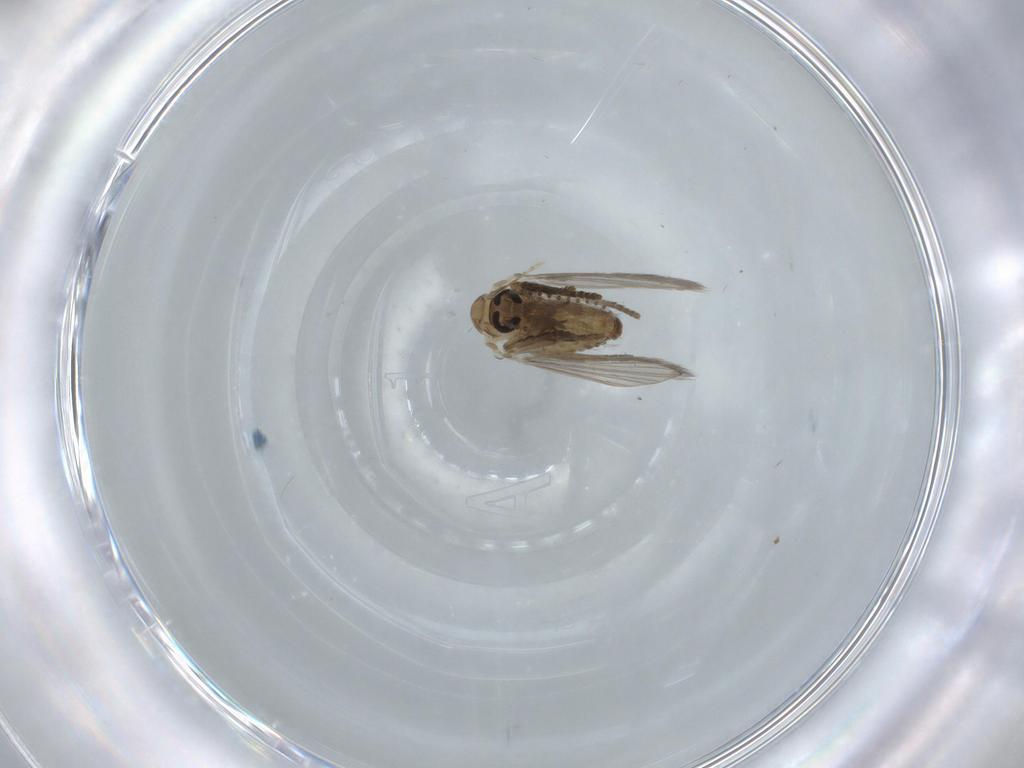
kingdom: Animalia
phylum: Arthropoda
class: Insecta
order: Diptera
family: Psychodidae
